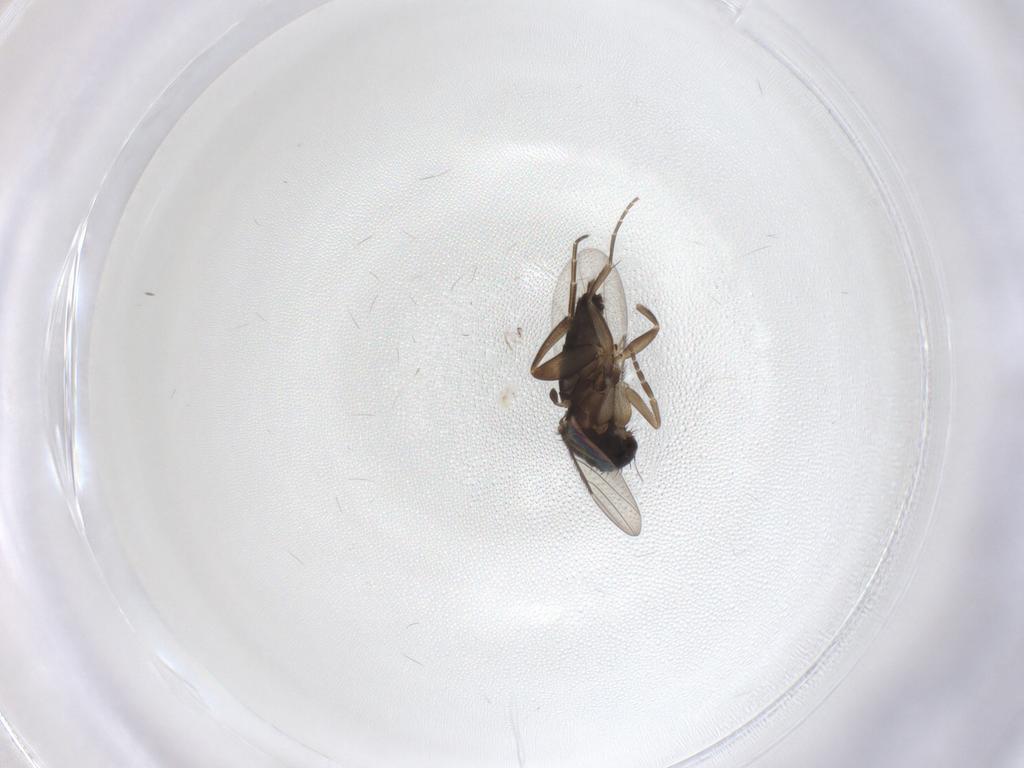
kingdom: Animalia
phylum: Arthropoda
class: Insecta
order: Diptera
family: Phoridae
